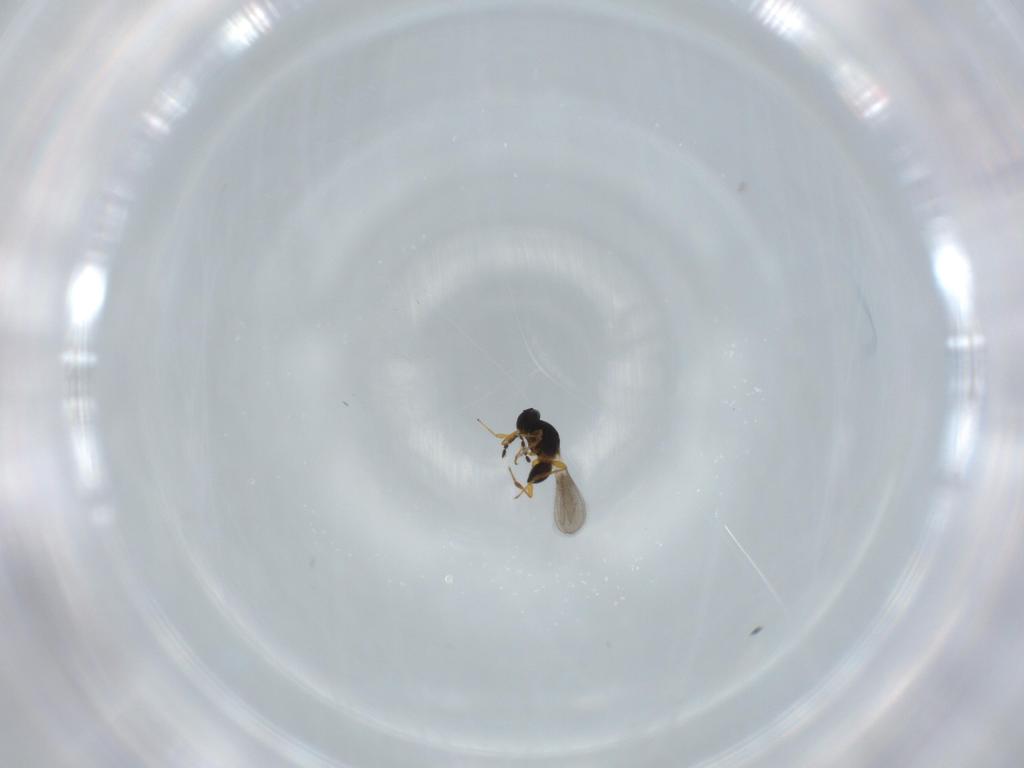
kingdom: Animalia
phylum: Arthropoda
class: Insecta
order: Hymenoptera
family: Platygastridae
